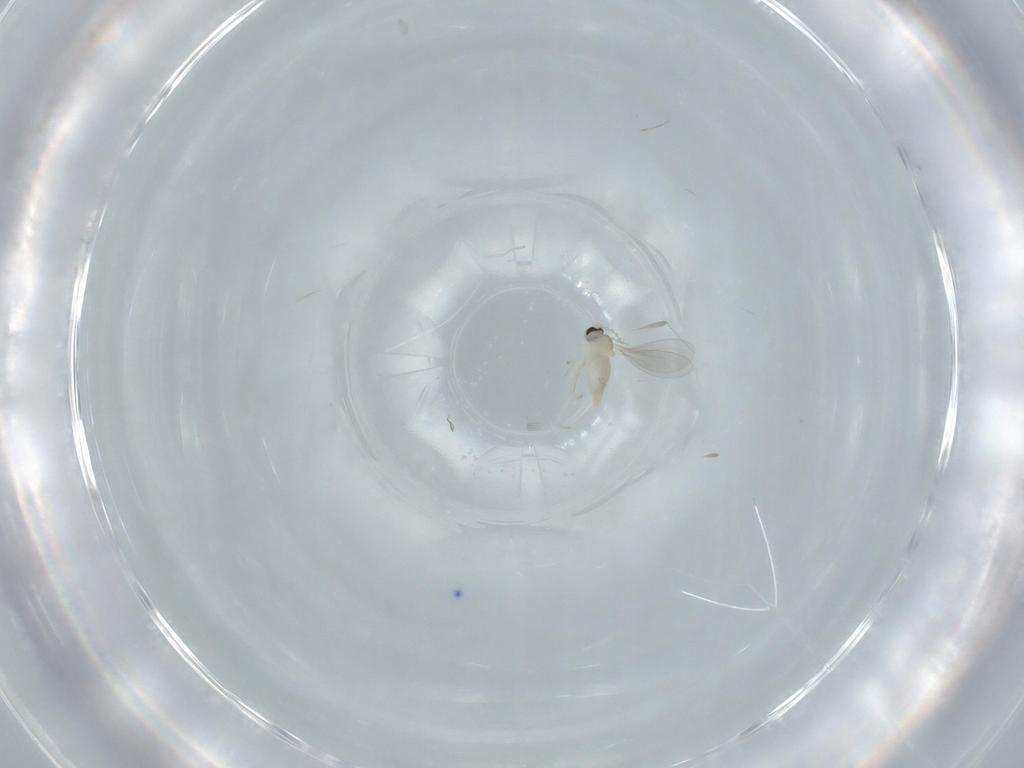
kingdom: Animalia
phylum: Arthropoda
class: Insecta
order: Diptera
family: Cecidomyiidae
